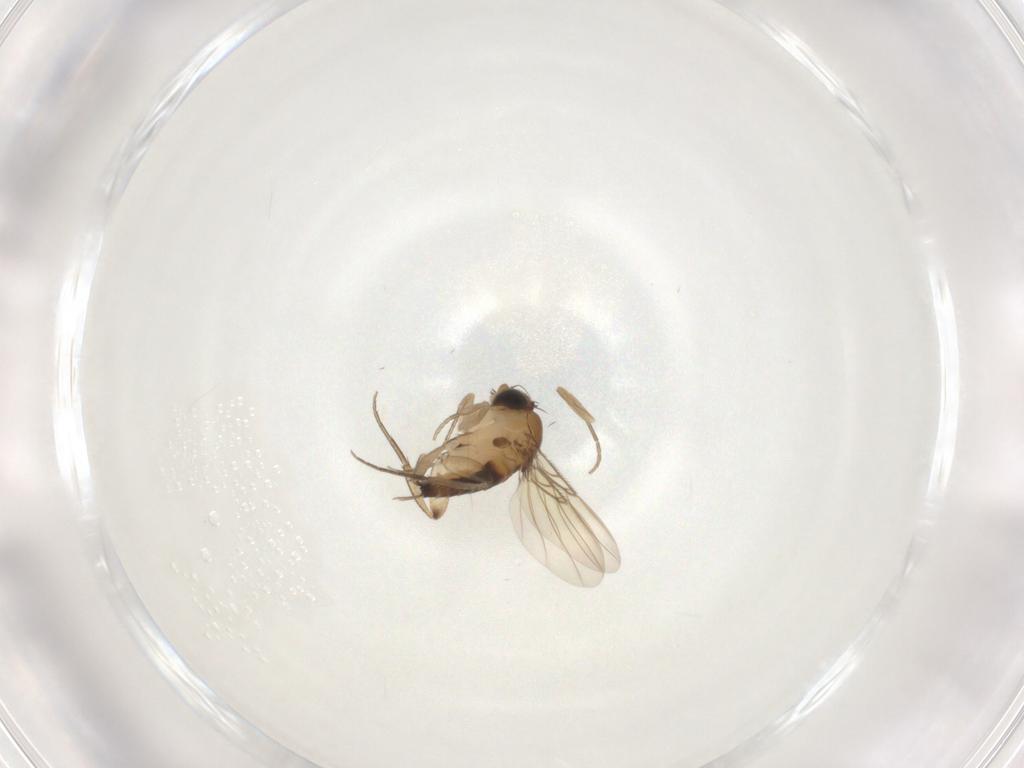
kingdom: Animalia
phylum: Arthropoda
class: Insecta
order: Diptera
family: Phoridae
